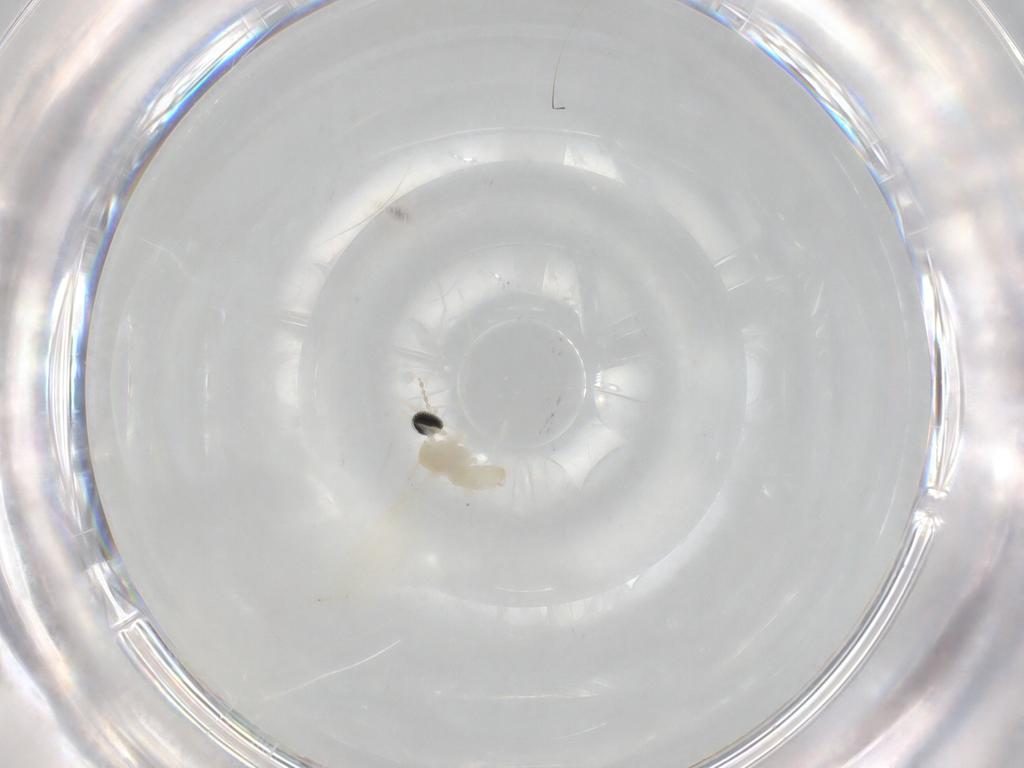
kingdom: Animalia
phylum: Arthropoda
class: Insecta
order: Diptera
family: Cecidomyiidae
